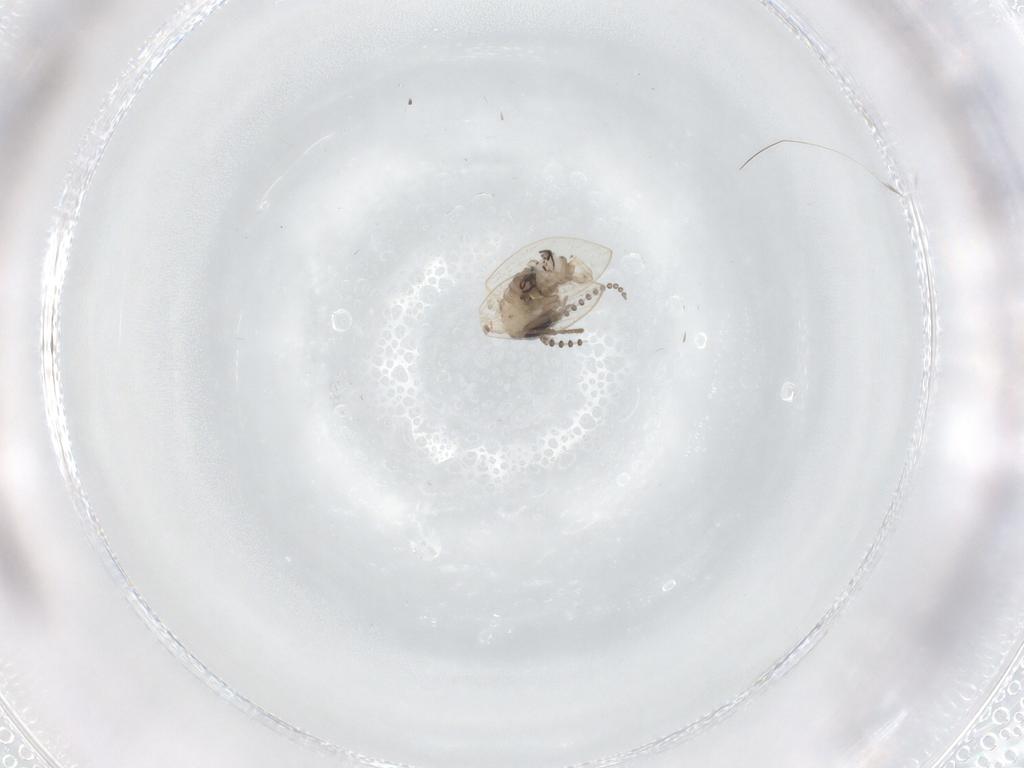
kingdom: Animalia
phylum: Arthropoda
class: Insecta
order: Diptera
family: Psychodidae
